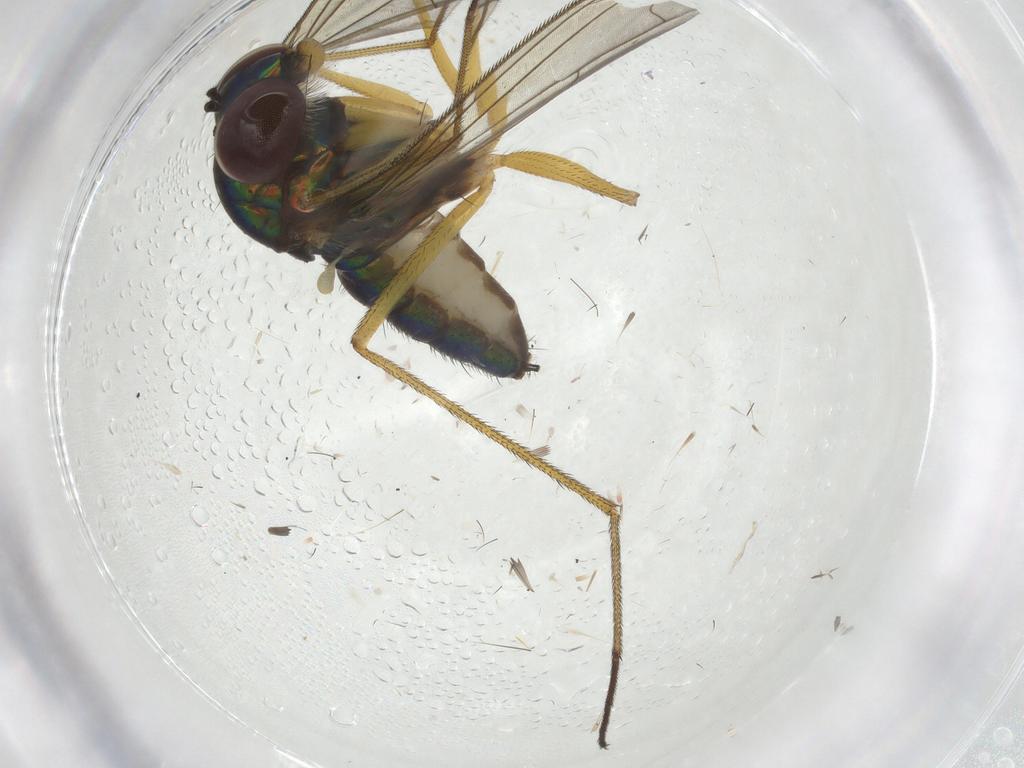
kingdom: Animalia
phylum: Arthropoda
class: Insecta
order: Diptera
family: Dolichopodidae
